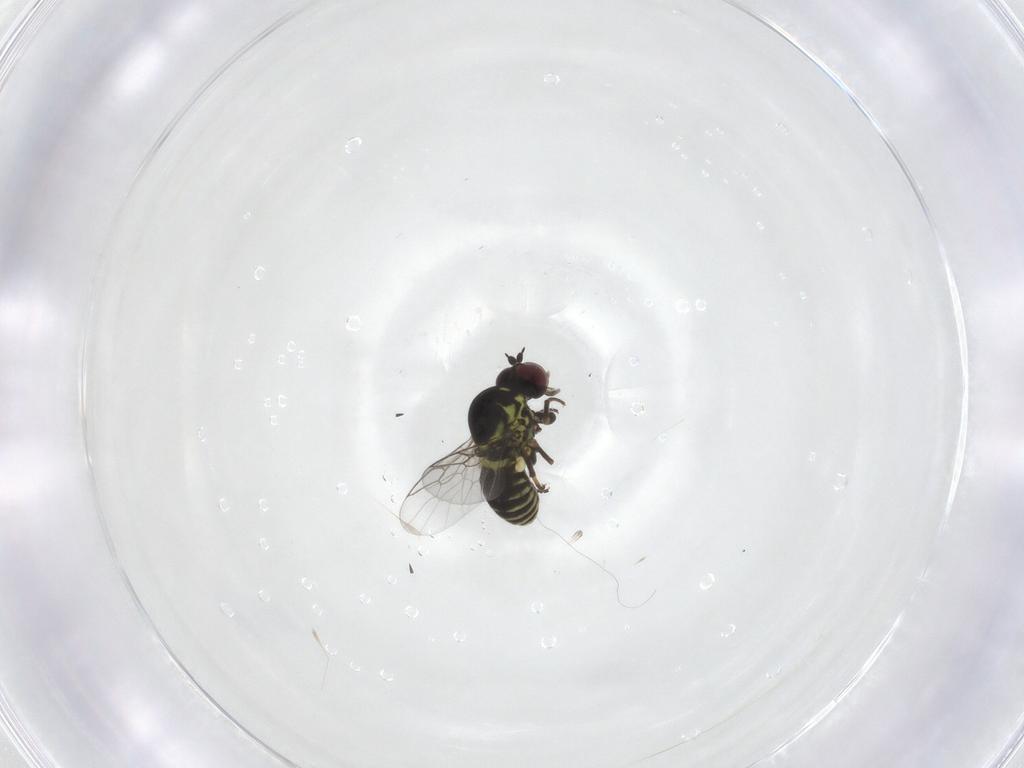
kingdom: Animalia
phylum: Arthropoda
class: Insecta
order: Diptera
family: Mythicomyiidae
